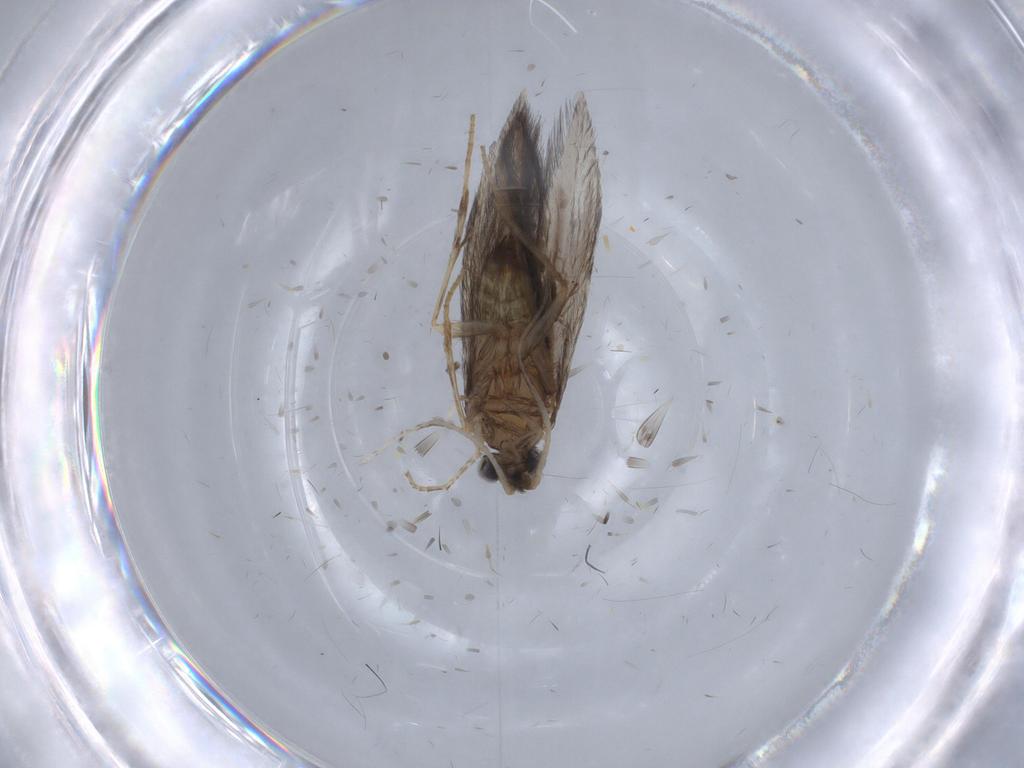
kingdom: Animalia
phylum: Arthropoda
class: Insecta
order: Trichoptera
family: Hydroptilidae
